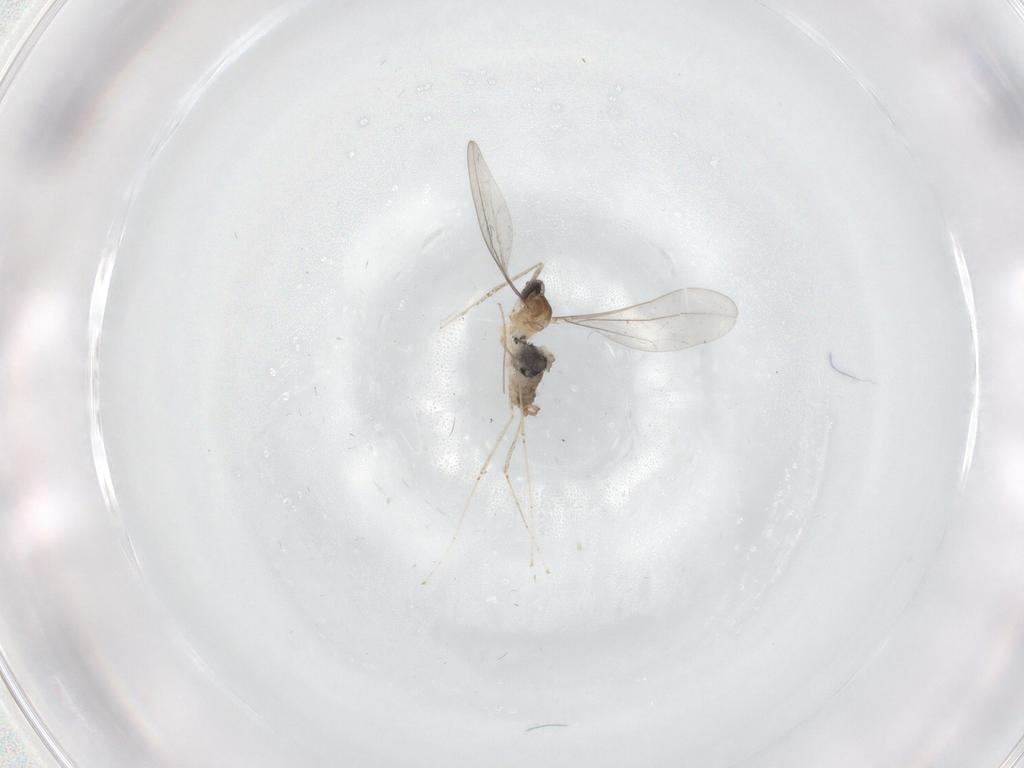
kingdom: Animalia
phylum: Arthropoda
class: Insecta
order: Diptera
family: Cecidomyiidae
